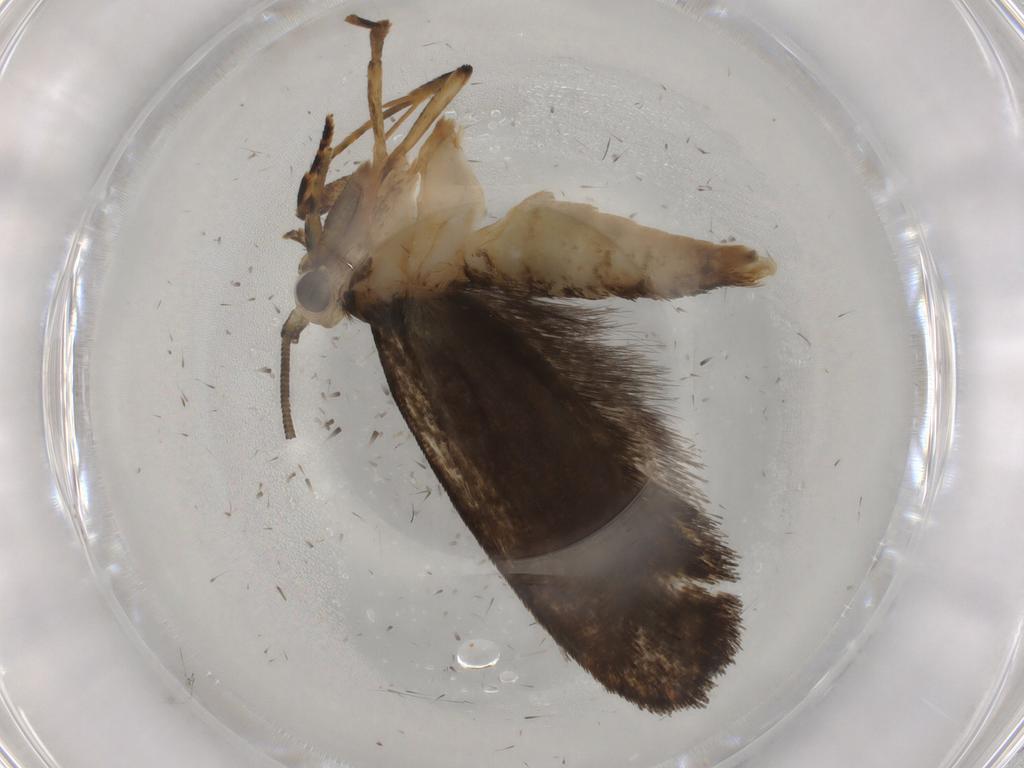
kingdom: Animalia
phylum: Arthropoda
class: Insecta
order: Lepidoptera
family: Tineidae
